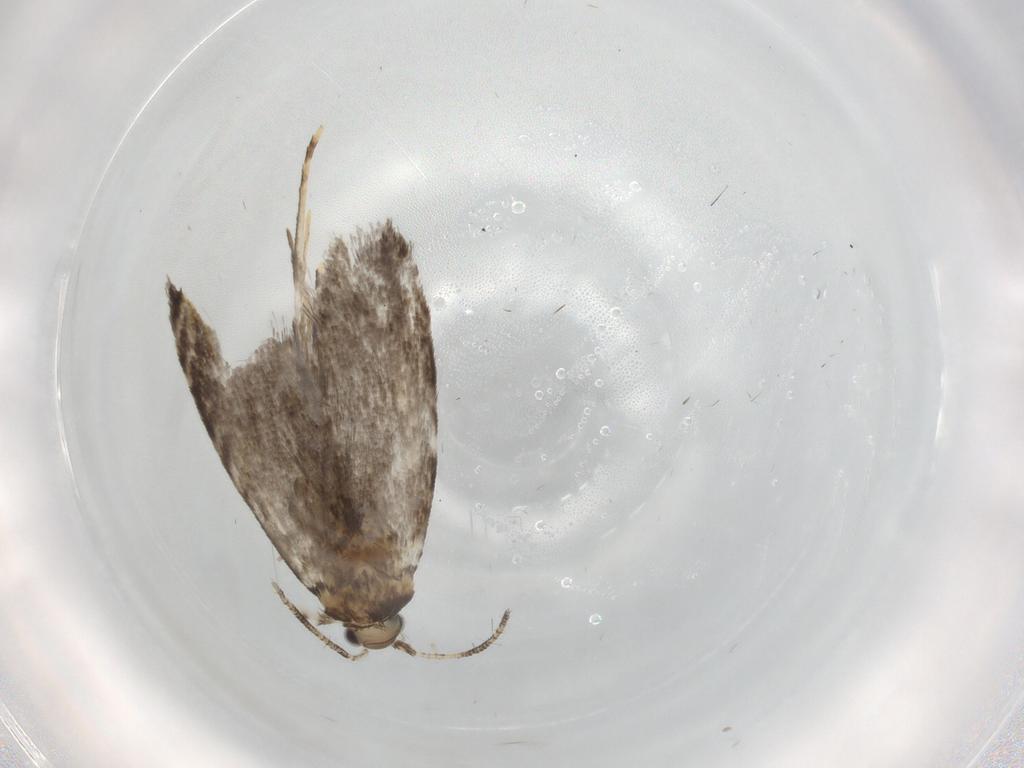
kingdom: Animalia
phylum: Arthropoda
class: Insecta
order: Lepidoptera
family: Tineidae
